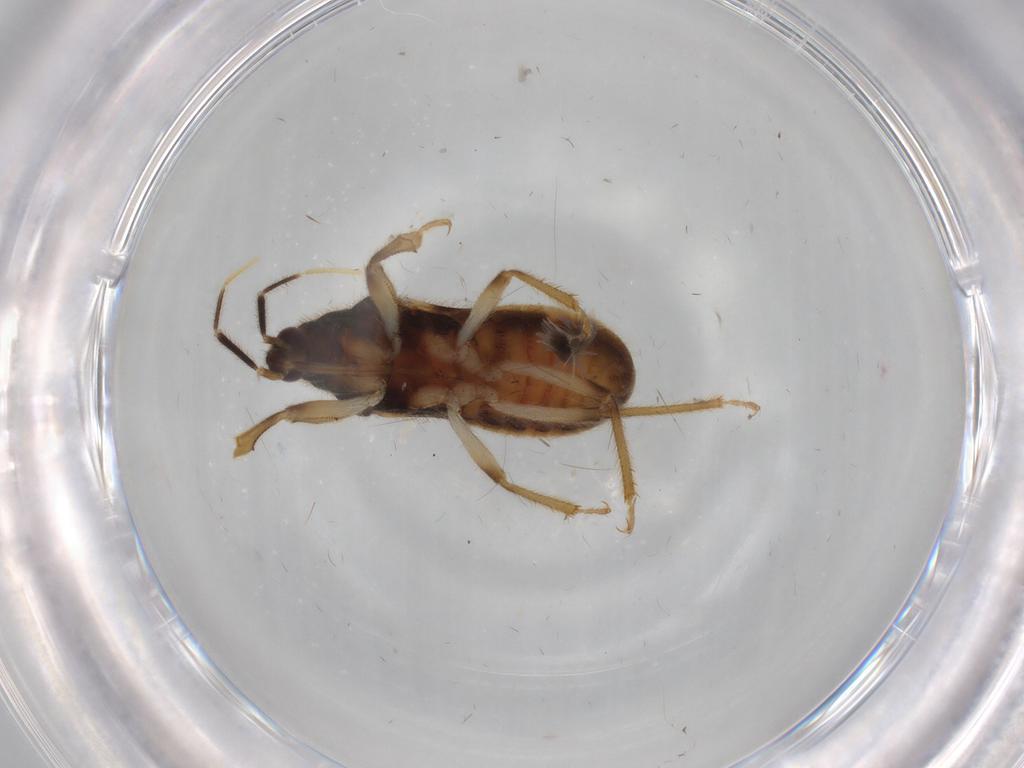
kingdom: Animalia
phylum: Arthropoda
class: Insecta
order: Hemiptera
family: Nabidae
